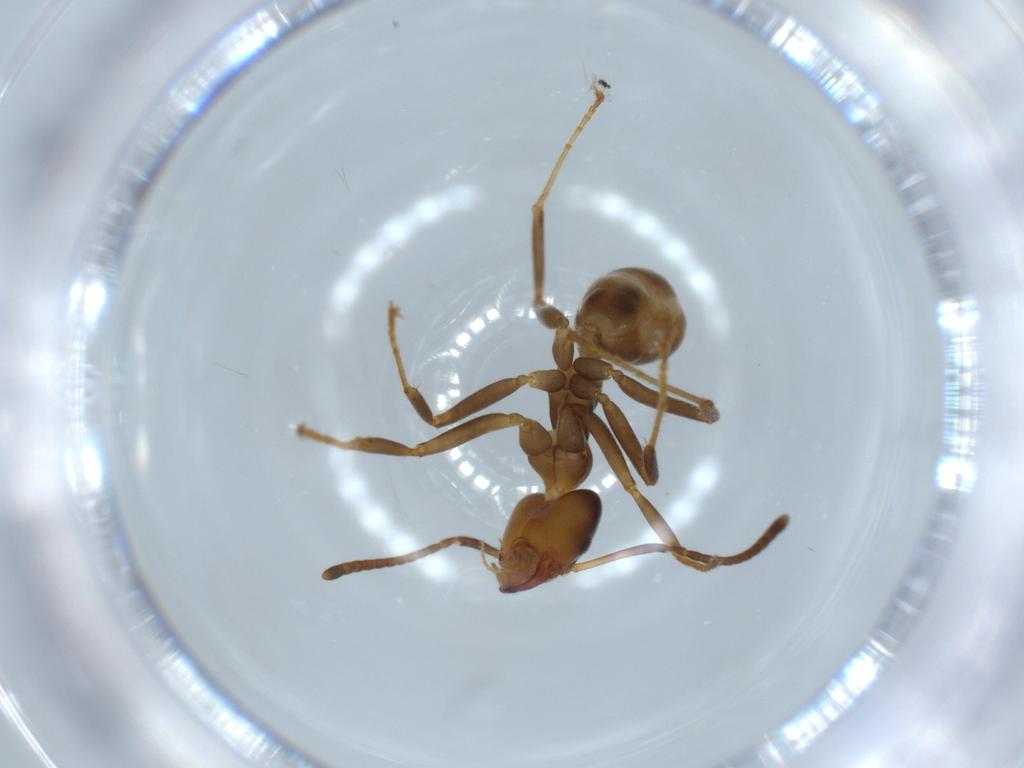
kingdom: Animalia
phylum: Arthropoda
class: Insecta
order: Hymenoptera
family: Formicidae
